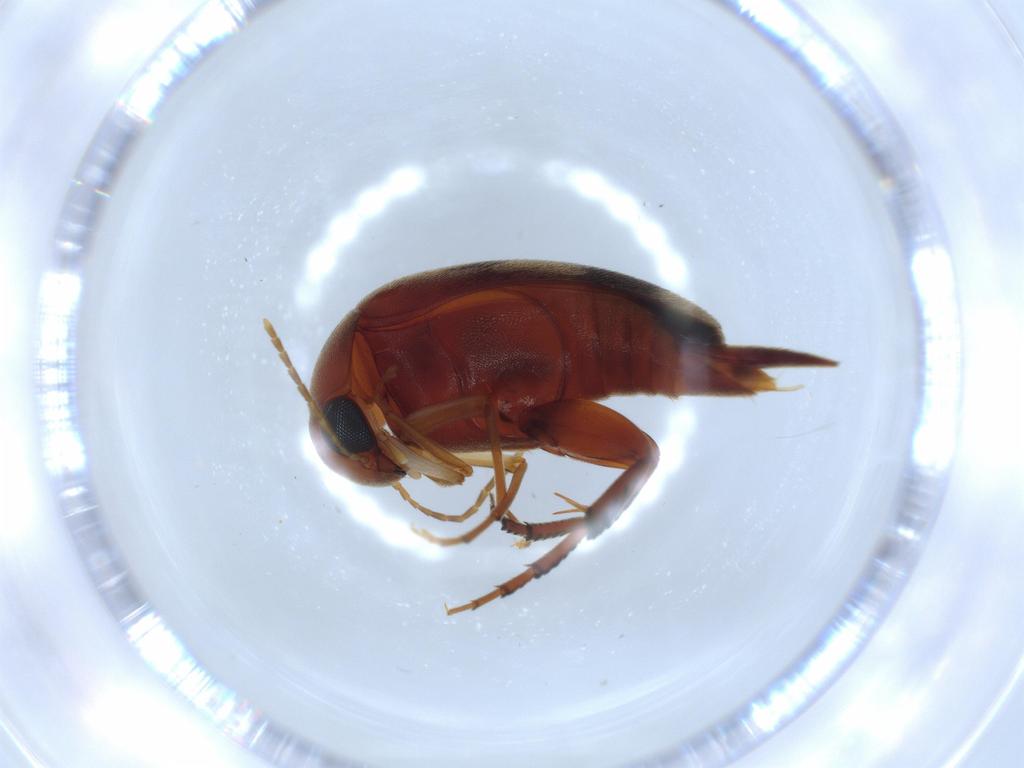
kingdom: Animalia
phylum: Arthropoda
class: Insecta
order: Coleoptera
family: Mordellidae
